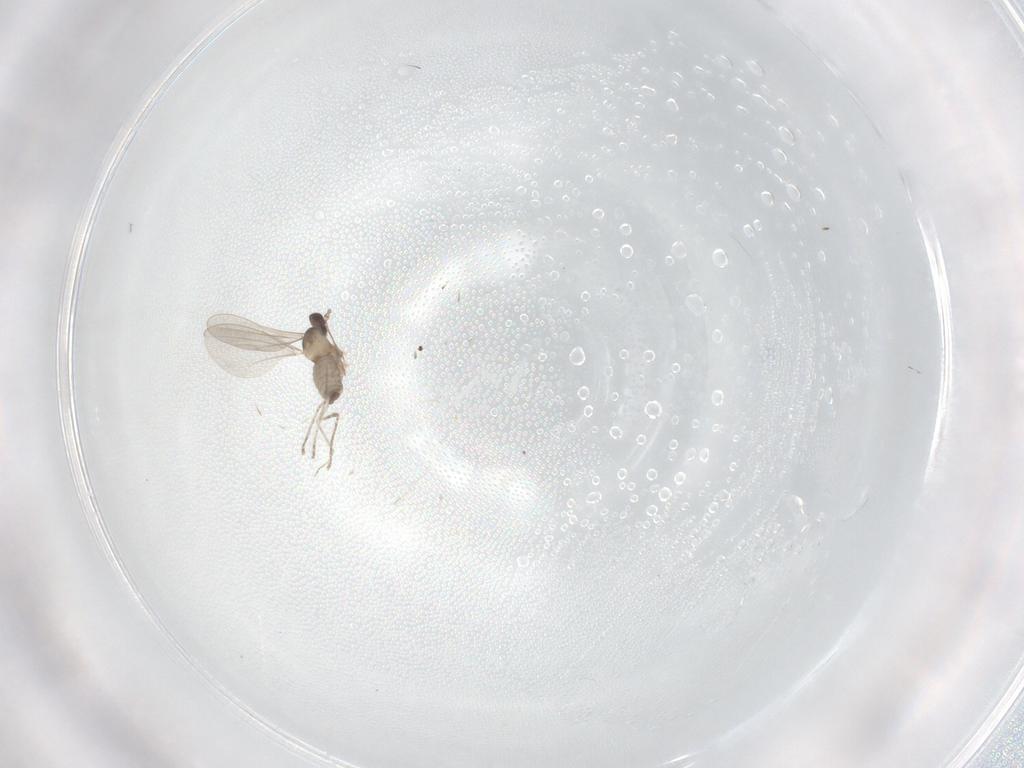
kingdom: Animalia
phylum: Arthropoda
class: Insecta
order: Diptera
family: Cecidomyiidae
